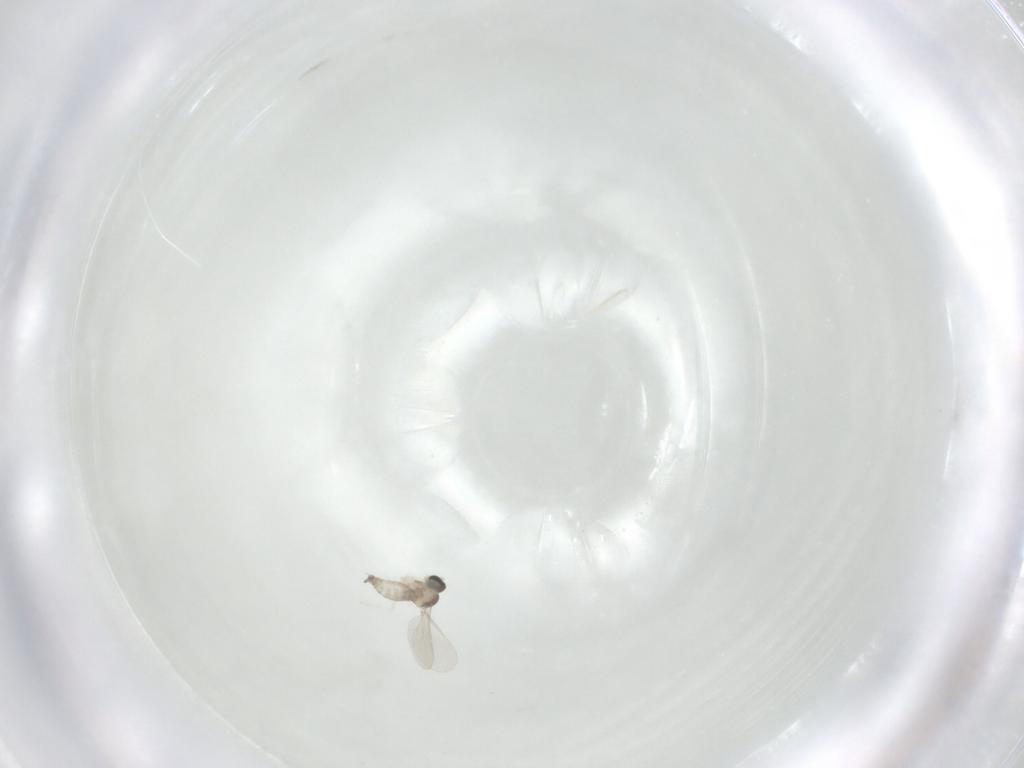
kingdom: Animalia
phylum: Arthropoda
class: Insecta
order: Diptera
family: Cecidomyiidae
